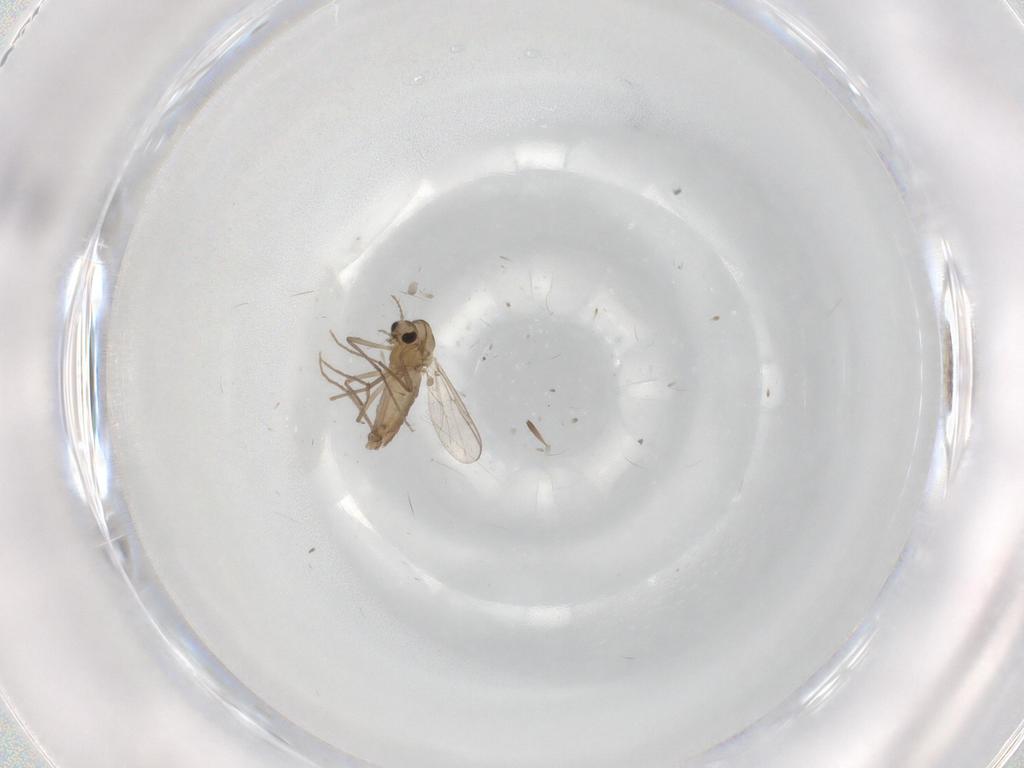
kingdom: Animalia
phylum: Arthropoda
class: Insecta
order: Diptera
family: Chironomidae
